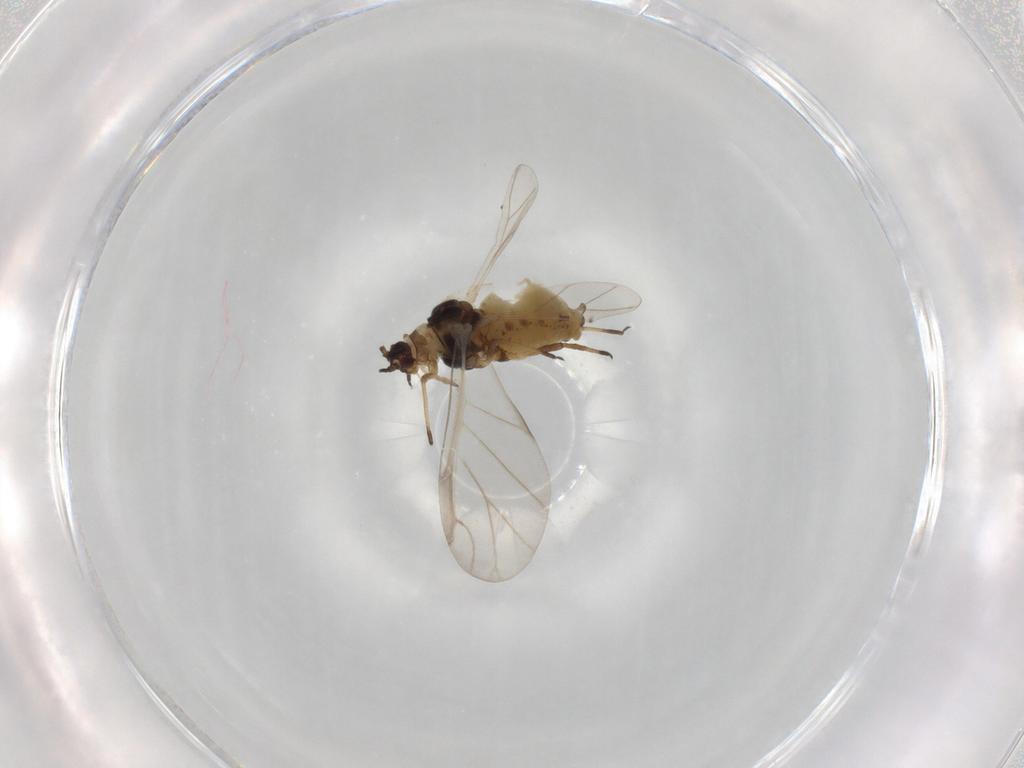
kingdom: Animalia
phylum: Arthropoda
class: Insecta
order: Hemiptera
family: Aphididae
